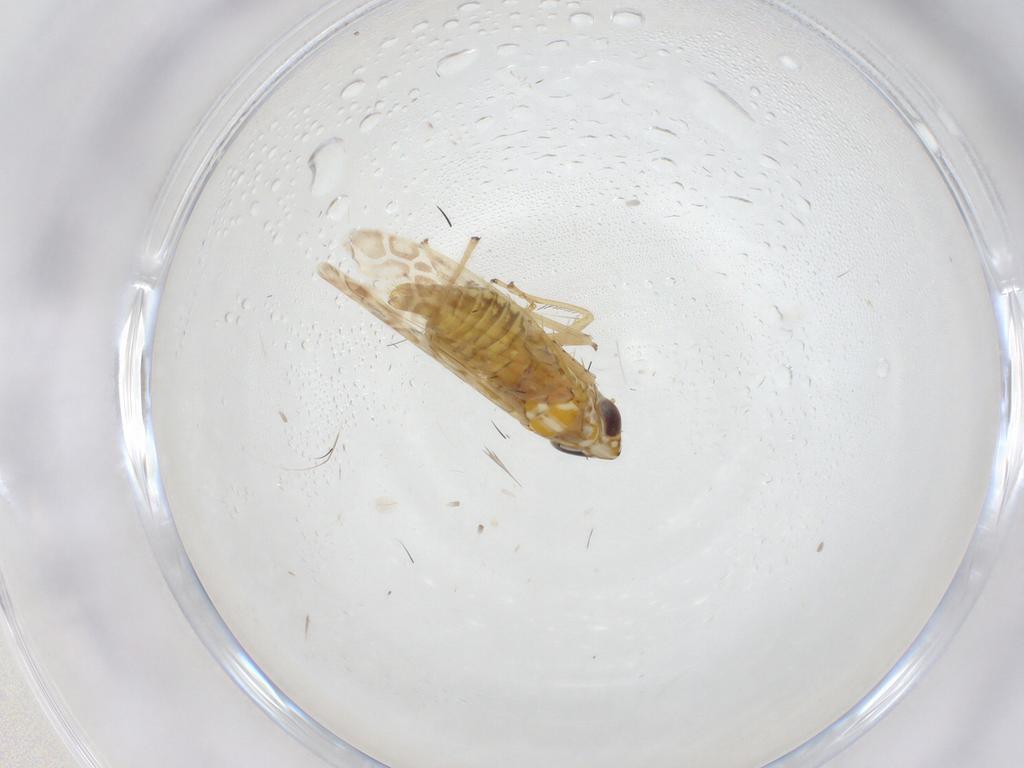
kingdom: Animalia
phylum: Arthropoda
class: Insecta
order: Hemiptera
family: Cicadellidae
